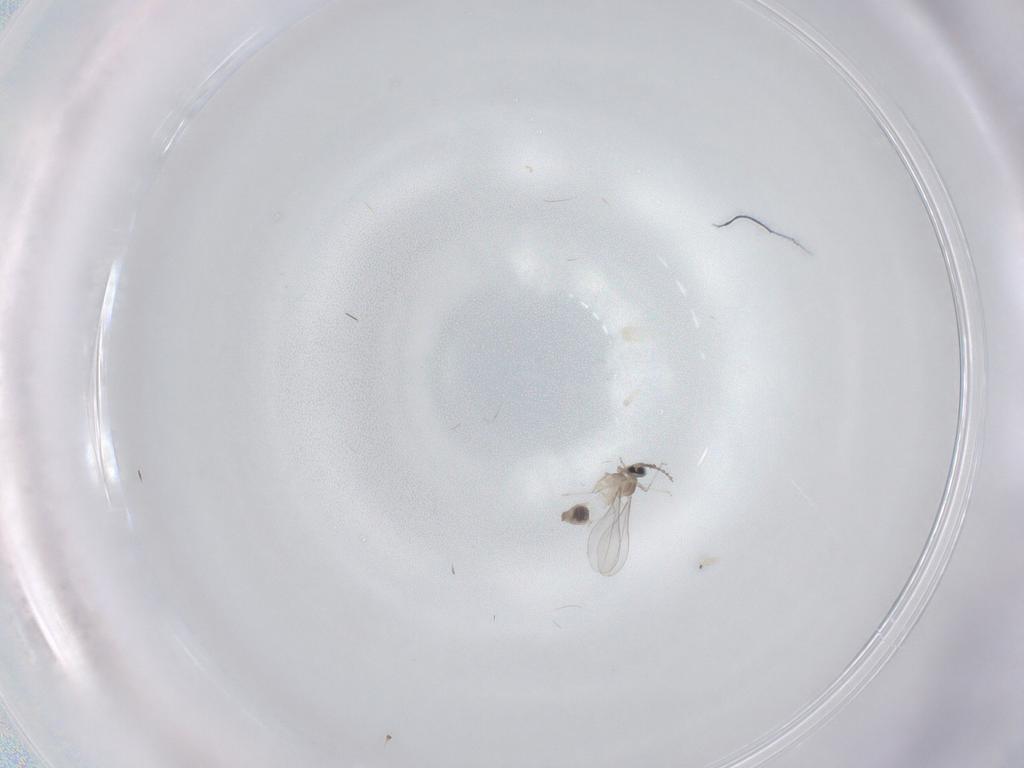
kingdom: Animalia
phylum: Arthropoda
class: Insecta
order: Diptera
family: Cecidomyiidae
